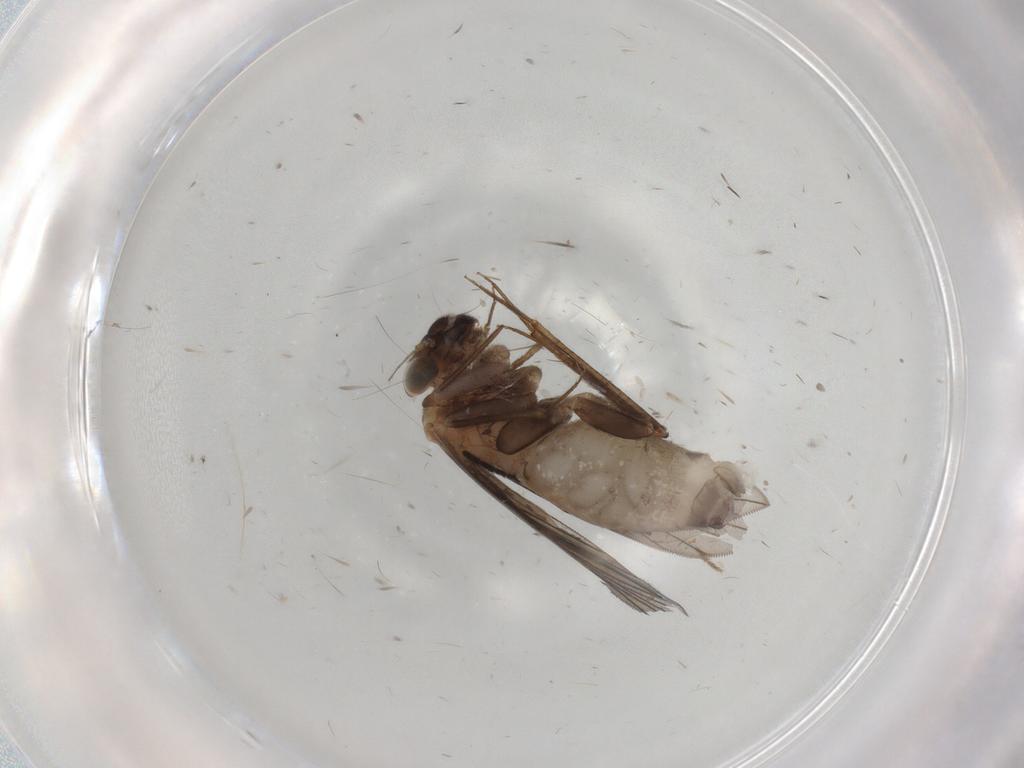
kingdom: Animalia
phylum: Arthropoda
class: Insecta
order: Psocodea
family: Lepidopsocidae
